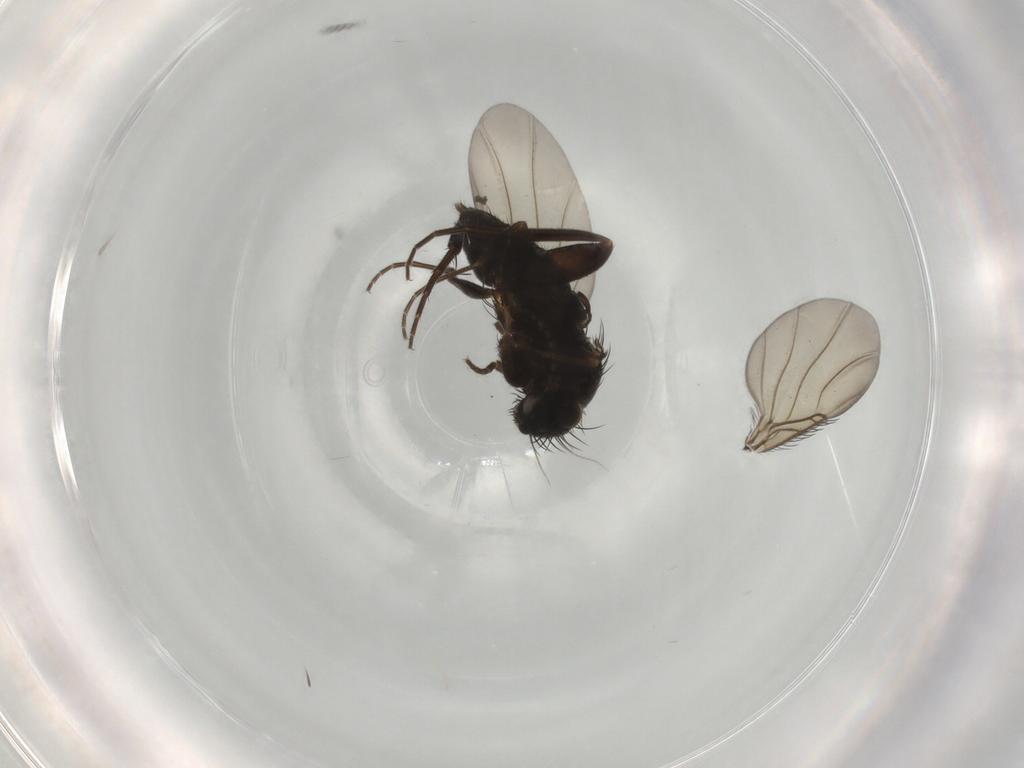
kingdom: Animalia
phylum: Arthropoda
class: Insecta
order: Diptera
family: Phoridae
